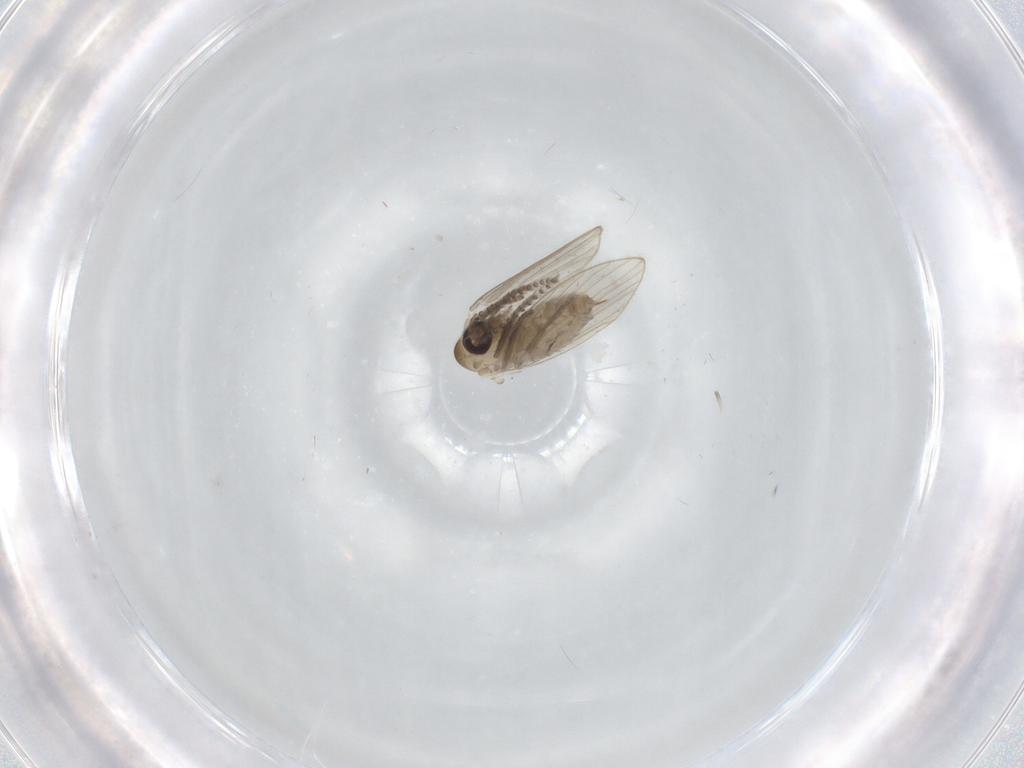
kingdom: Animalia
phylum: Arthropoda
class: Insecta
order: Diptera
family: Psychodidae
